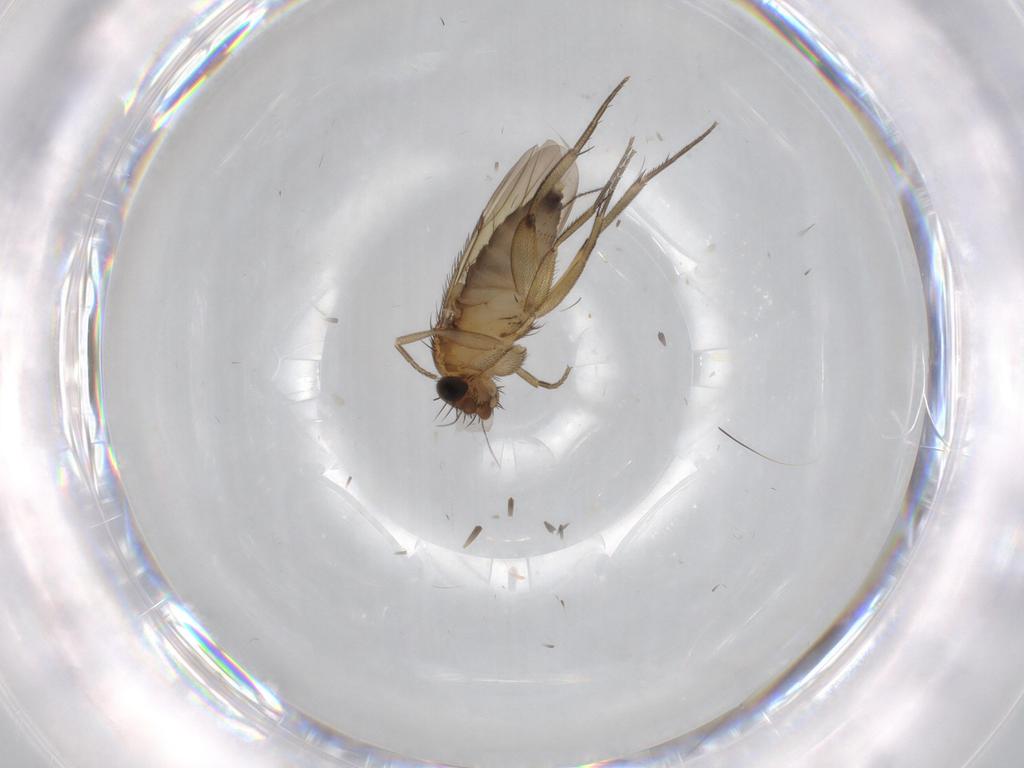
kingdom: Animalia
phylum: Arthropoda
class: Insecta
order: Diptera
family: Phoridae
